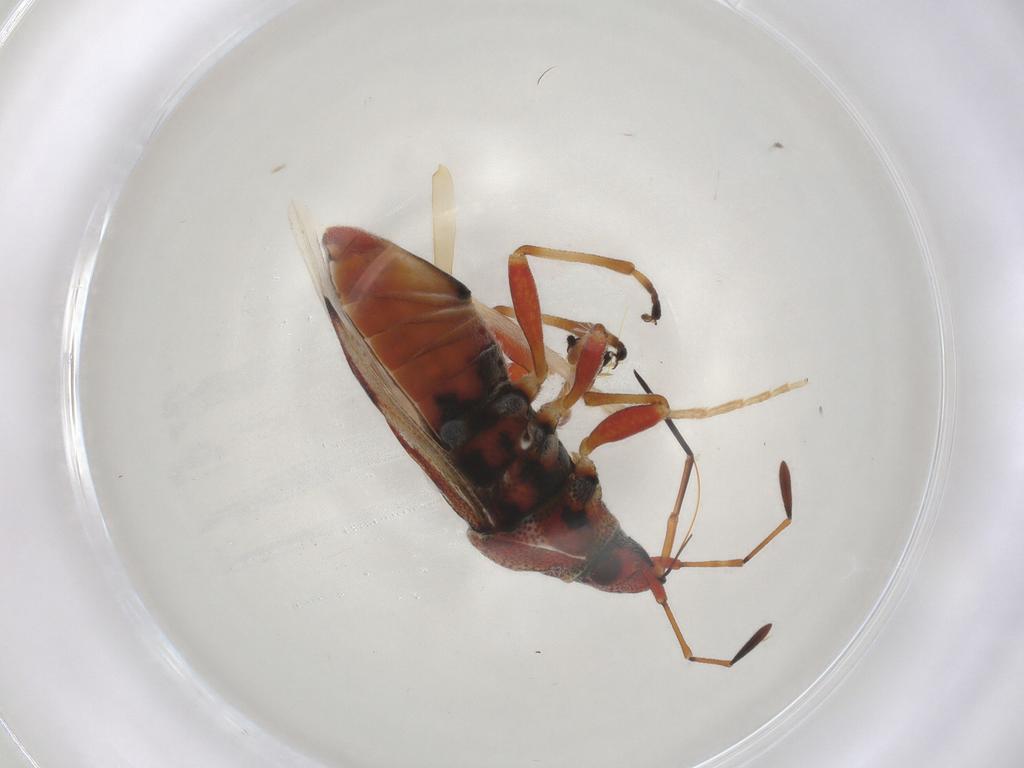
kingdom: Animalia
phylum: Arthropoda
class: Insecta
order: Hemiptera
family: Lygaeidae
